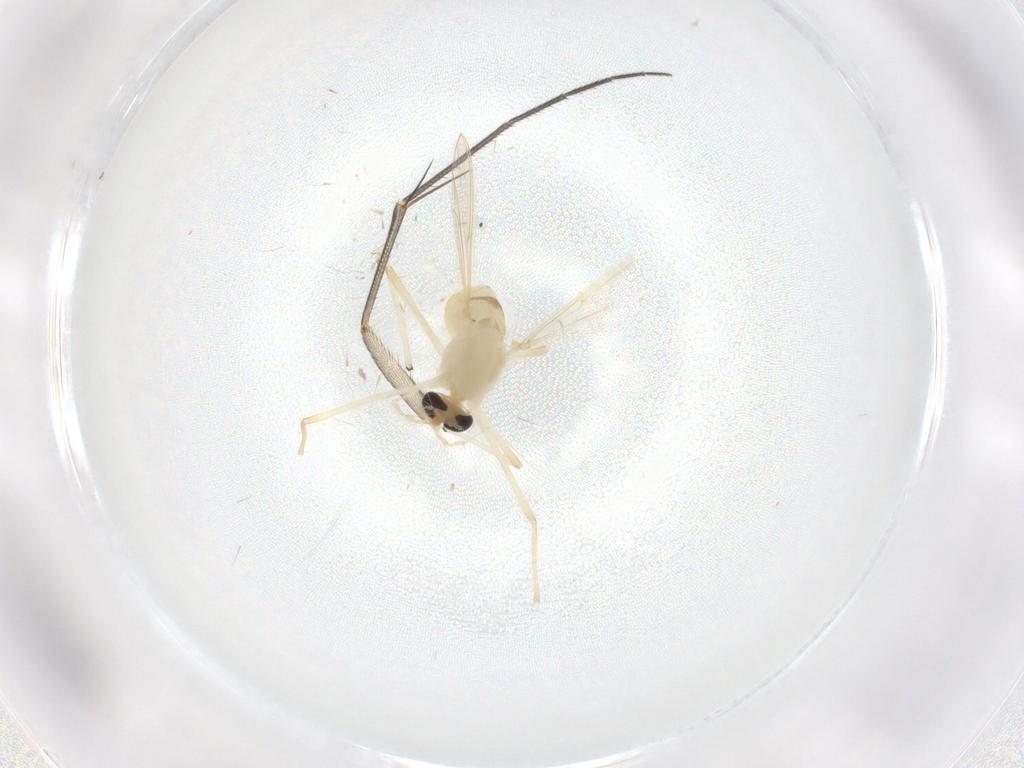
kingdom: Animalia
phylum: Arthropoda
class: Insecta
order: Diptera
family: Chironomidae
